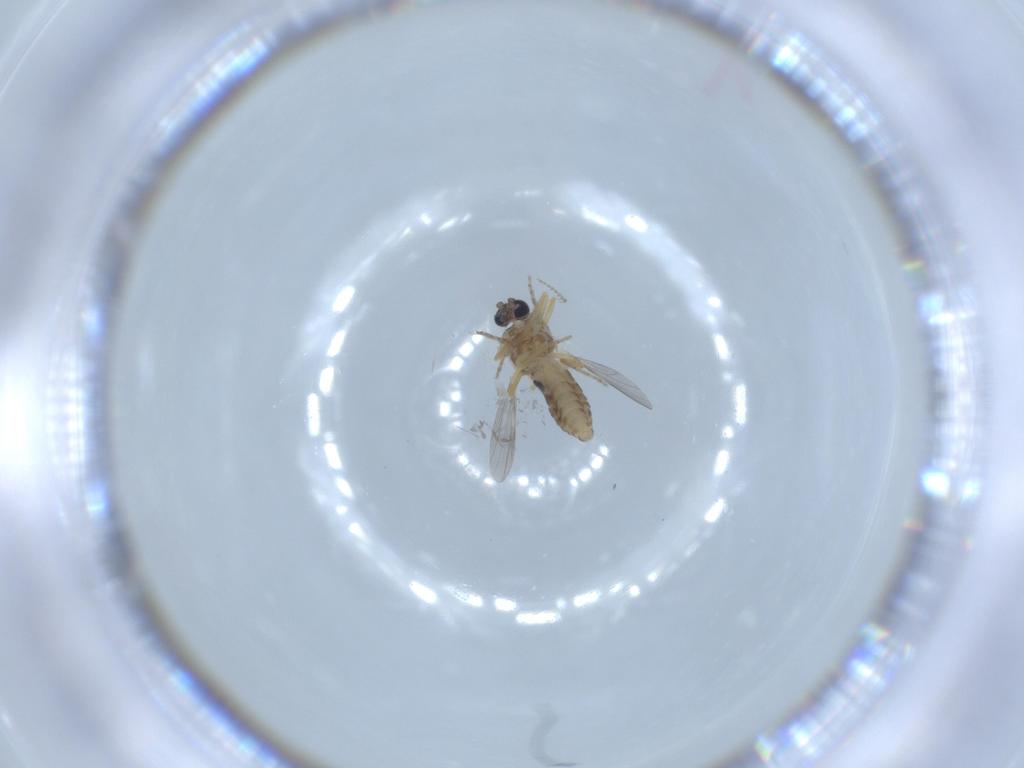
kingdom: Animalia
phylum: Arthropoda
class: Insecta
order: Diptera
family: Ceratopogonidae
